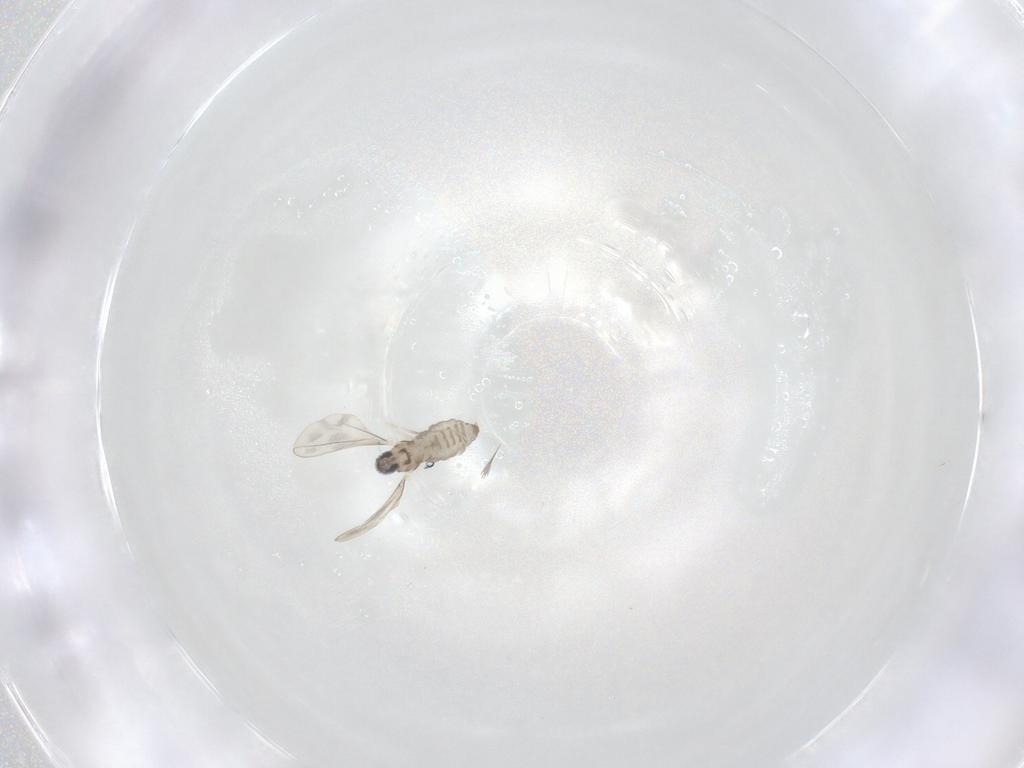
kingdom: Animalia
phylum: Arthropoda
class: Insecta
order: Diptera
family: Cecidomyiidae
